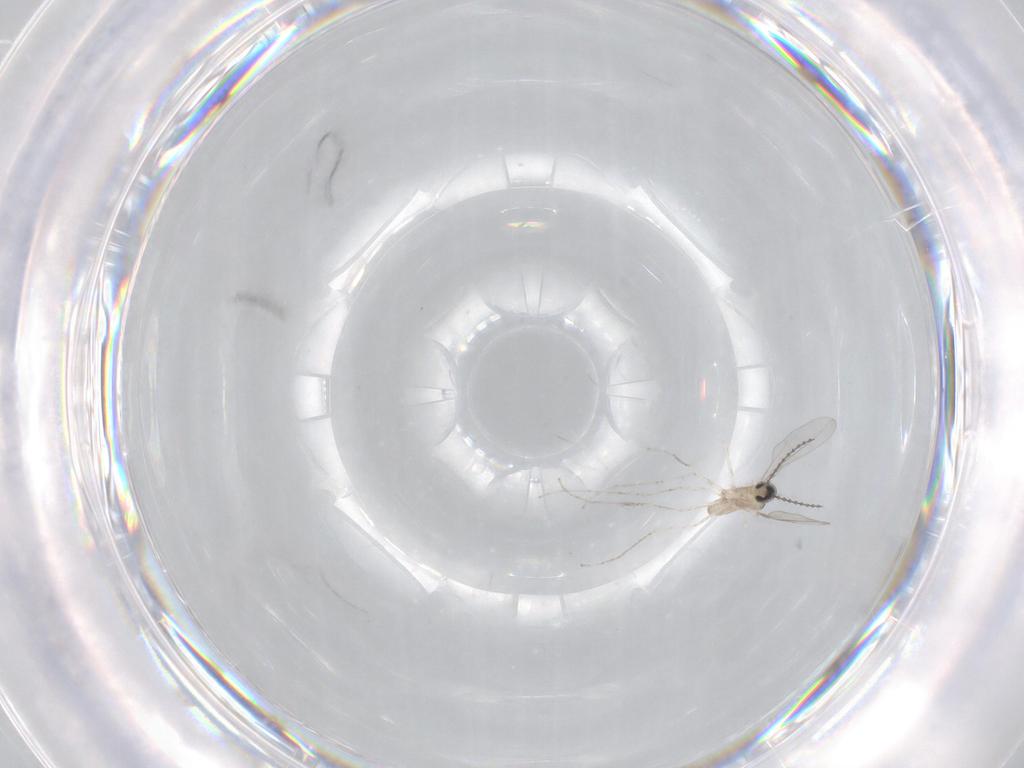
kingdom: Animalia
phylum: Arthropoda
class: Insecta
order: Diptera
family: Cecidomyiidae
